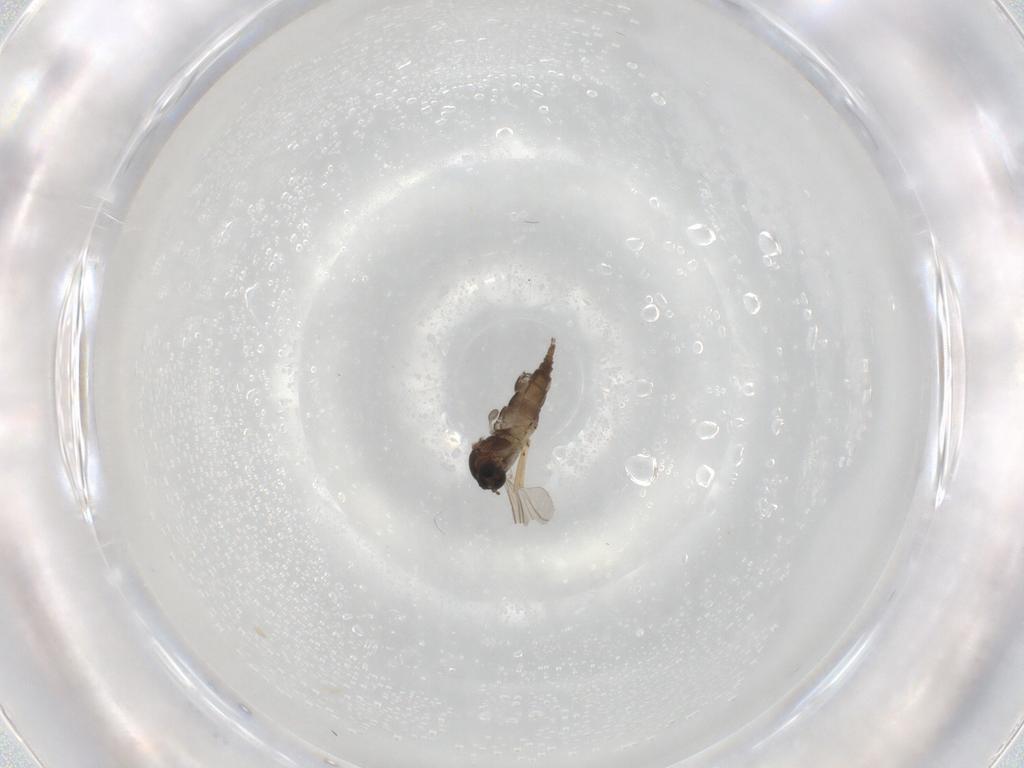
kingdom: Animalia
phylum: Arthropoda
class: Insecta
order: Diptera
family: Sciaridae
